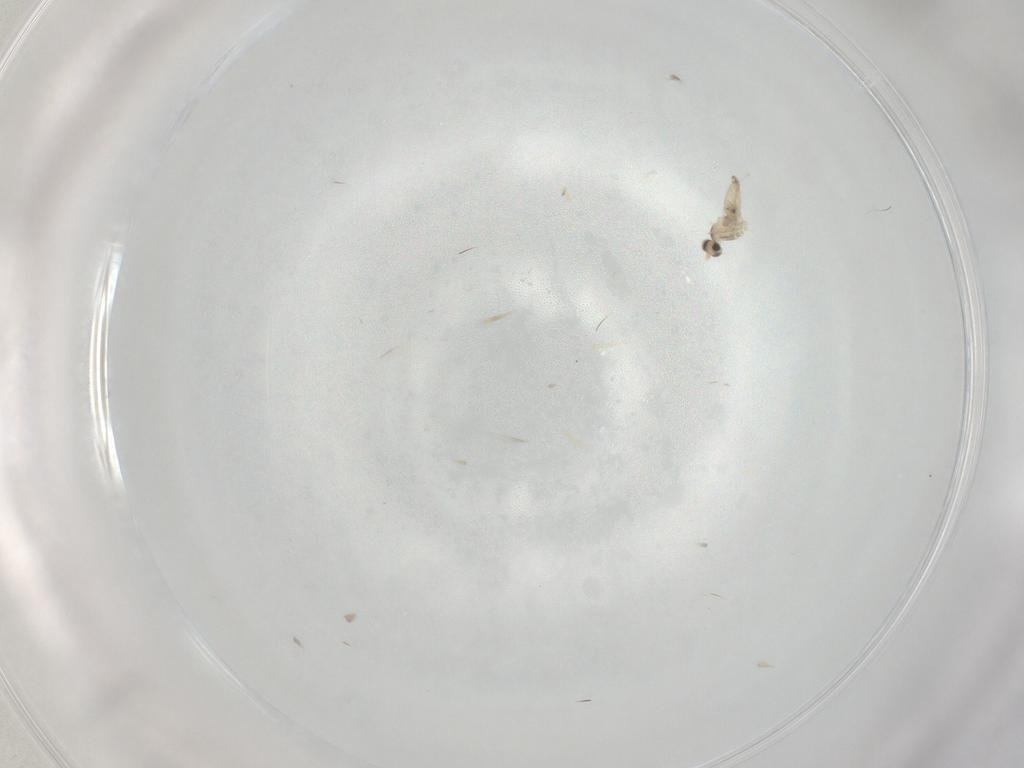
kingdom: Animalia
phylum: Arthropoda
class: Insecta
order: Diptera
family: Cecidomyiidae
